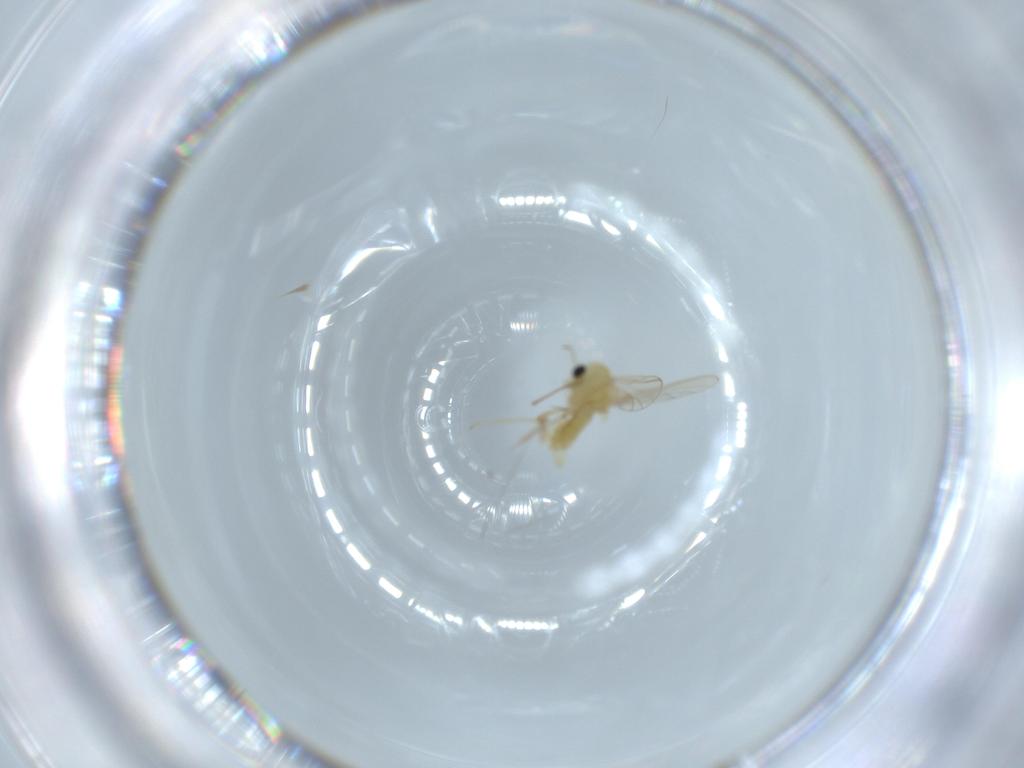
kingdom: Animalia
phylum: Arthropoda
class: Insecta
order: Diptera
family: Chironomidae
